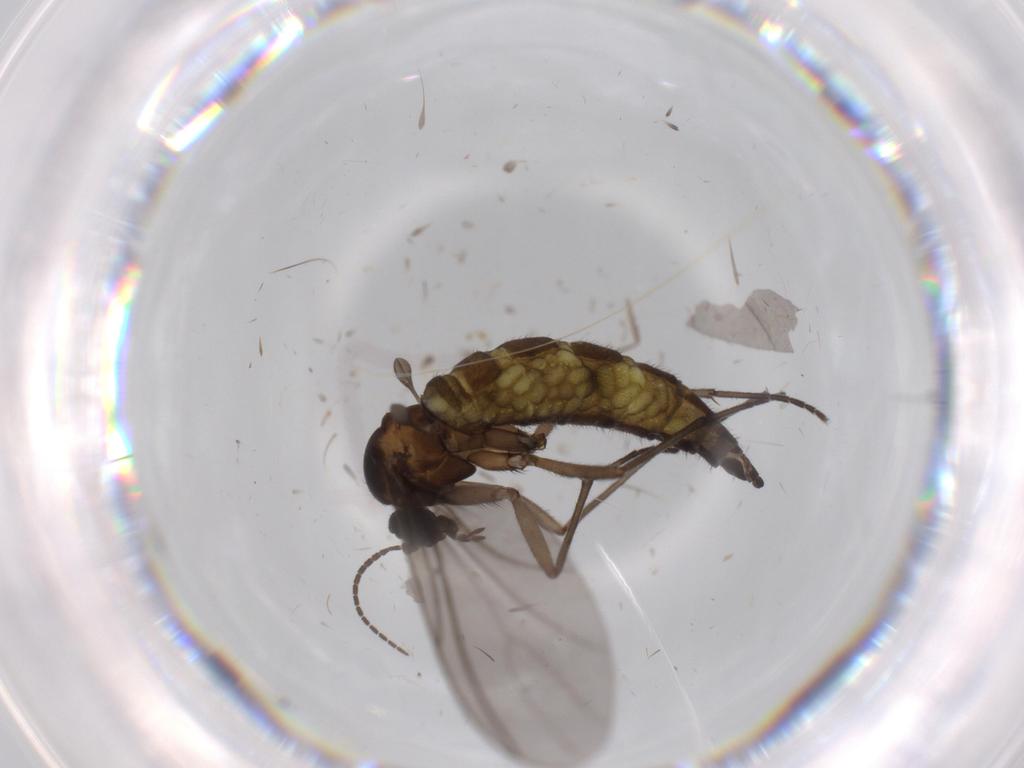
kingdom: Animalia
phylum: Arthropoda
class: Insecta
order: Diptera
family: Sciaridae
